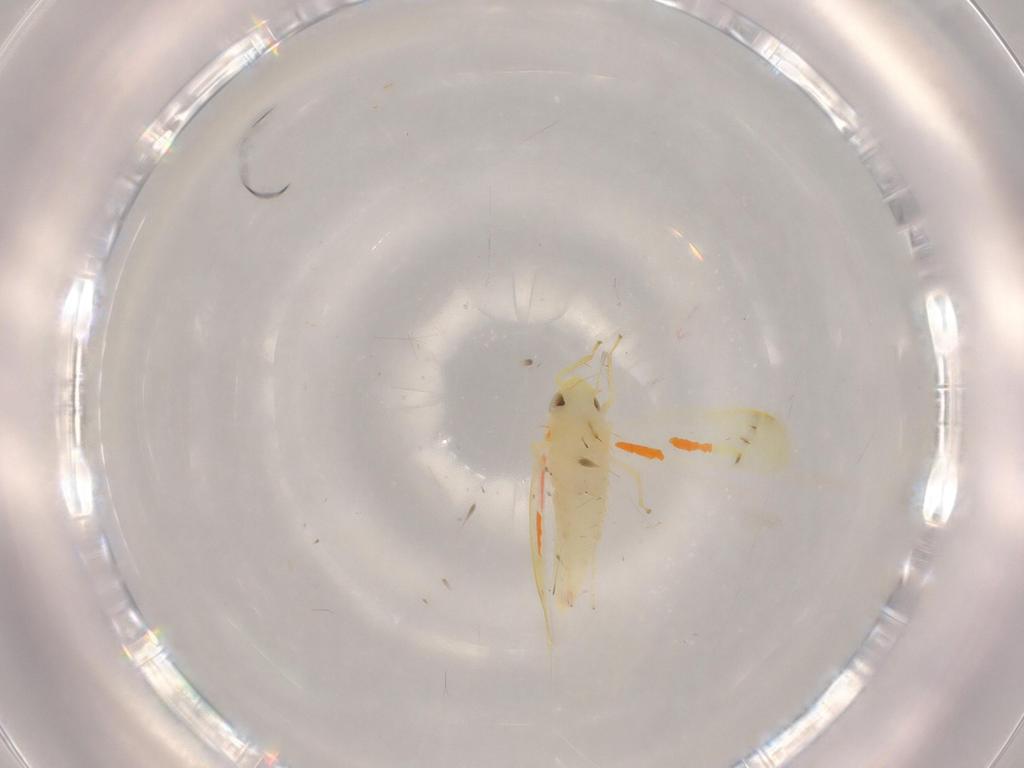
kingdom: Animalia
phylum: Arthropoda
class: Insecta
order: Hemiptera
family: Cicadellidae
